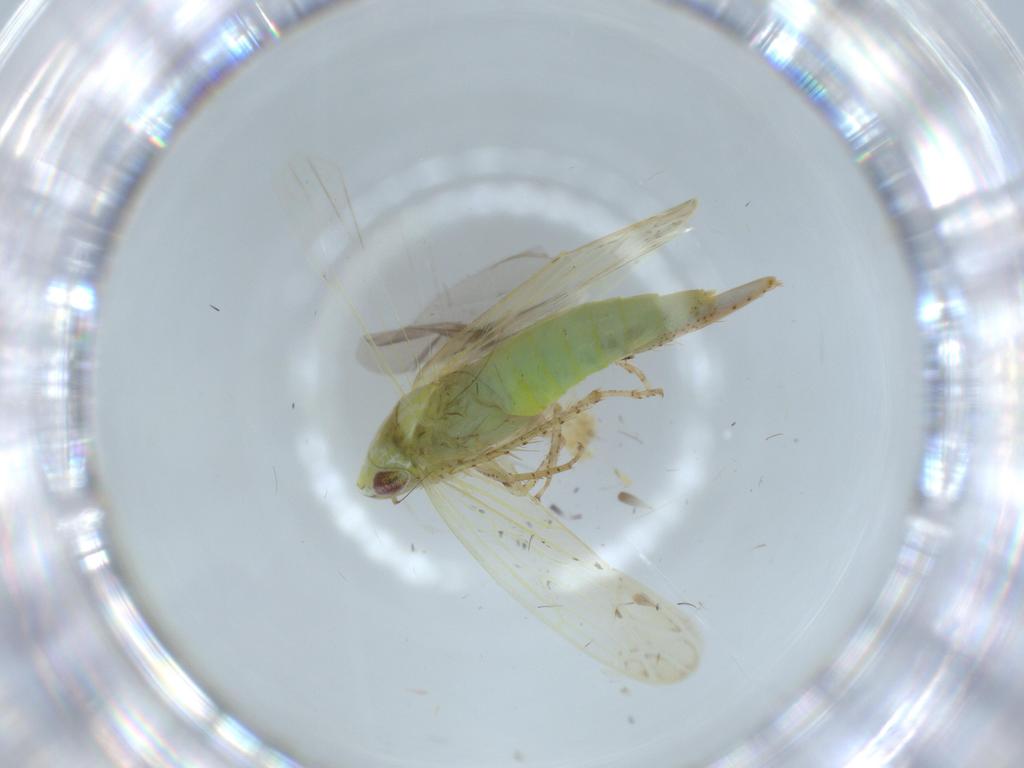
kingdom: Animalia
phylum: Arthropoda
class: Insecta
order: Hemiptera
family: Cicadellidae
